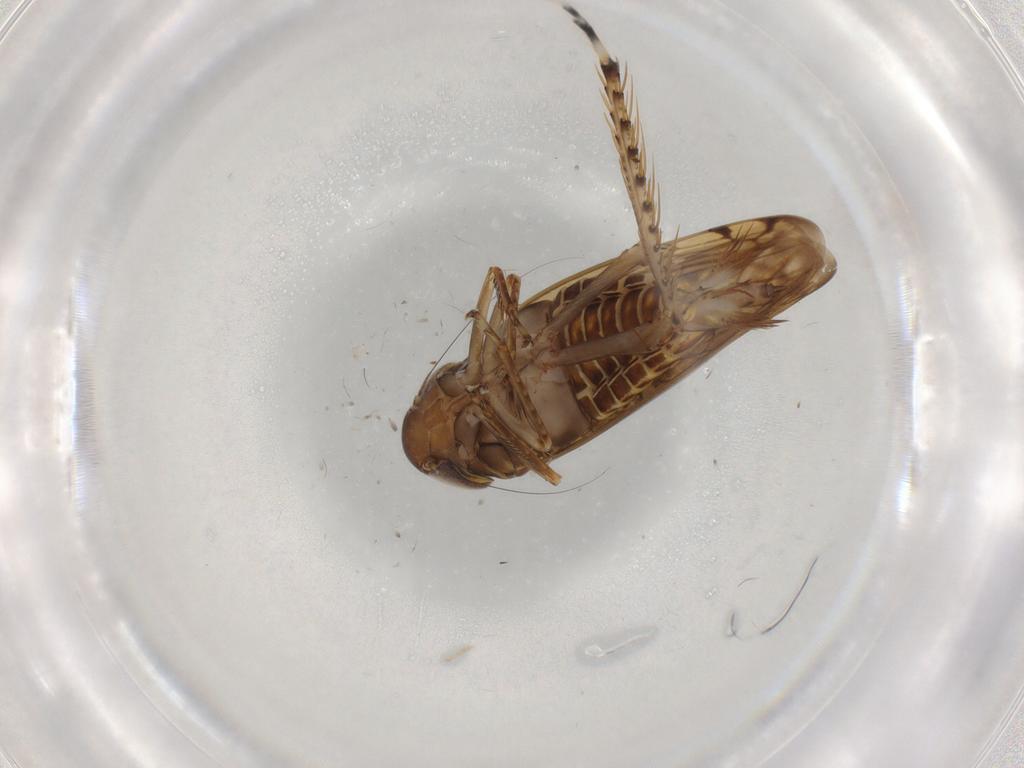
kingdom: Animalia
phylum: Arthropoda
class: Insecta
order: Hemiptera
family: Cicadellidae
